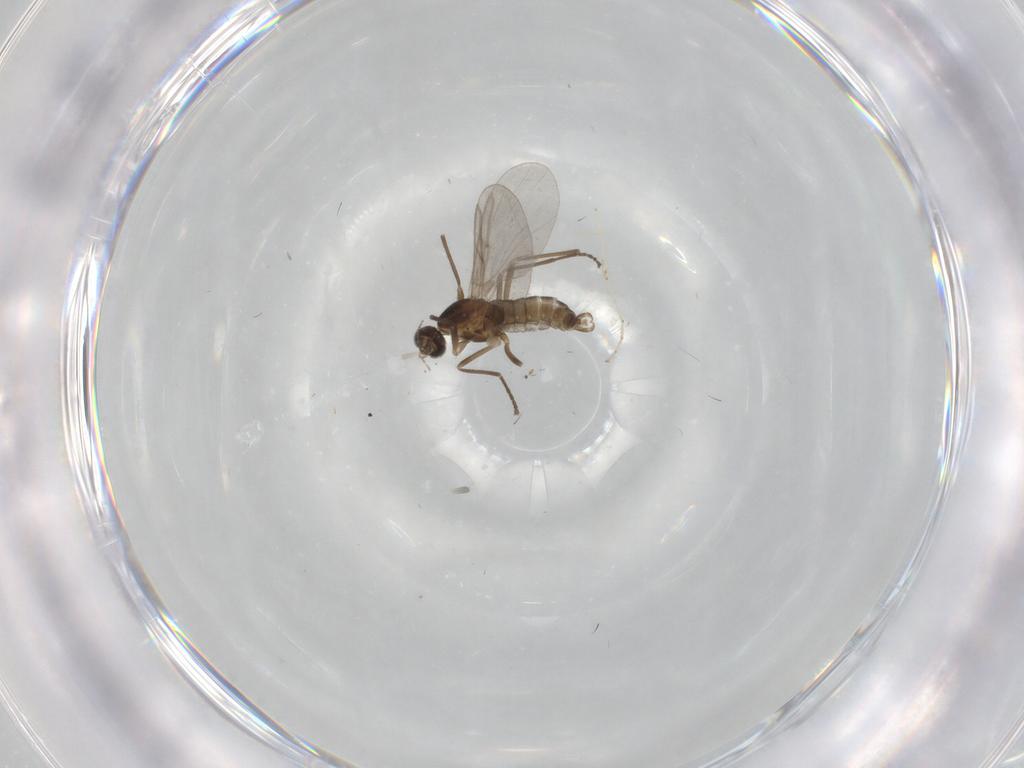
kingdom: Animalia
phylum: Arthropoda
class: Insecta
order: Diptera
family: Cecidomyiidae
